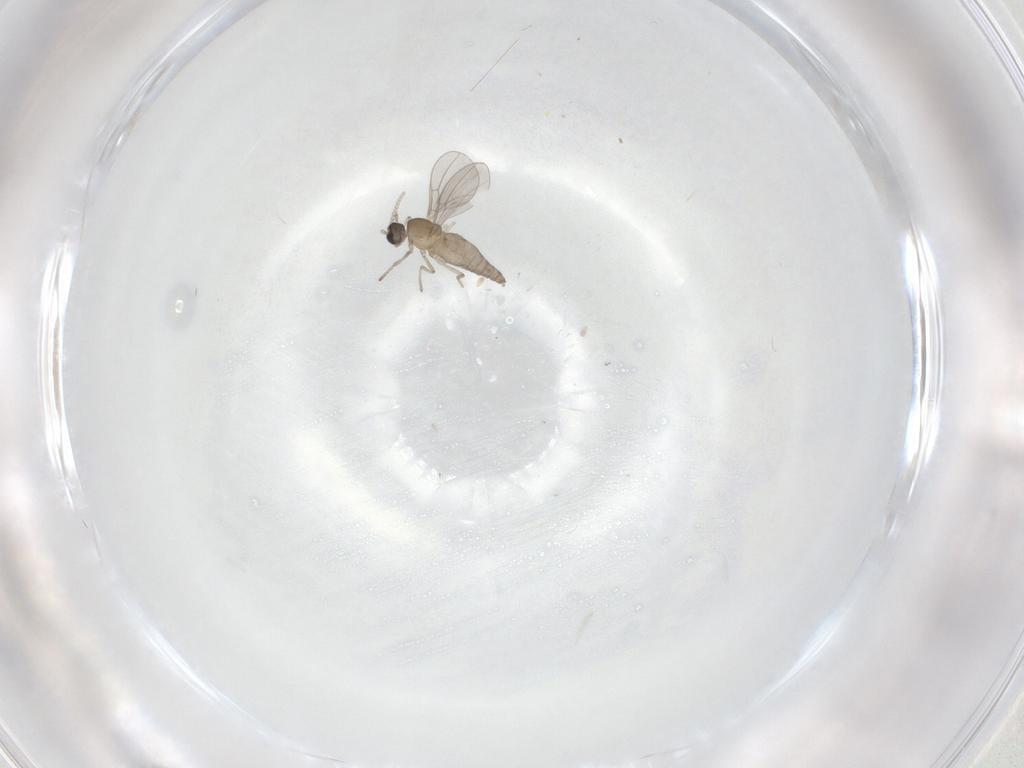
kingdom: Animalia
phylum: Arthropoda
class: Insecta
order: Diptera
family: Cecidomyiidae
